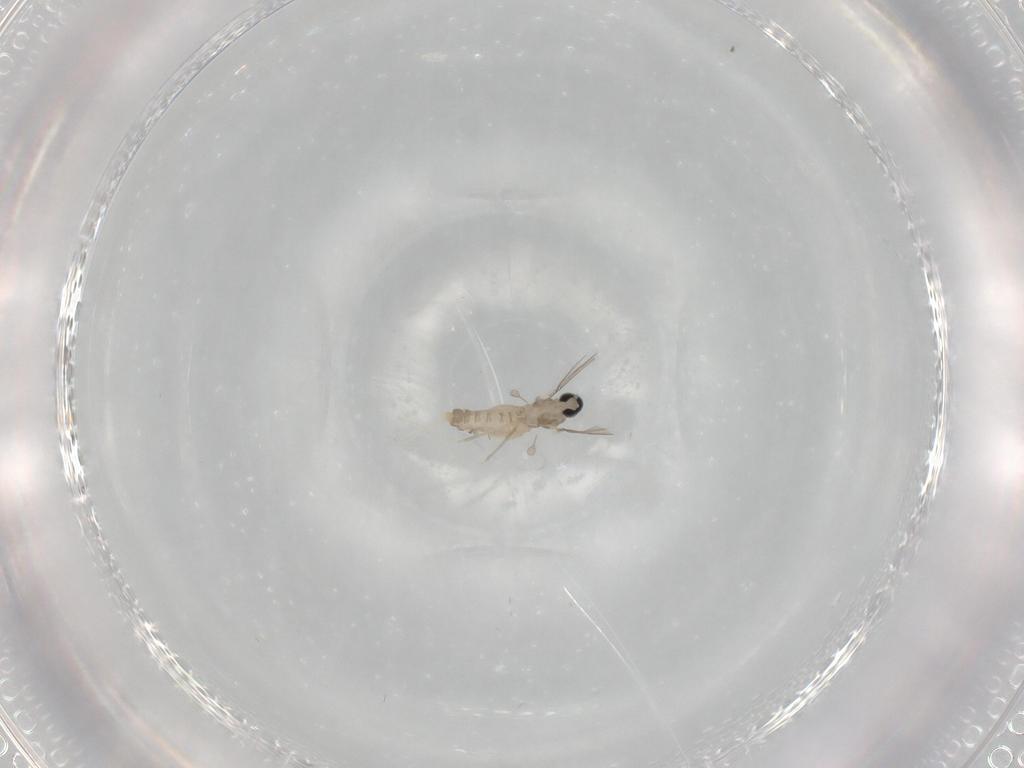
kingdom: Animalia
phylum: Arthropoda
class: Insecta
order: Diptera
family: Cecidomyiidae
